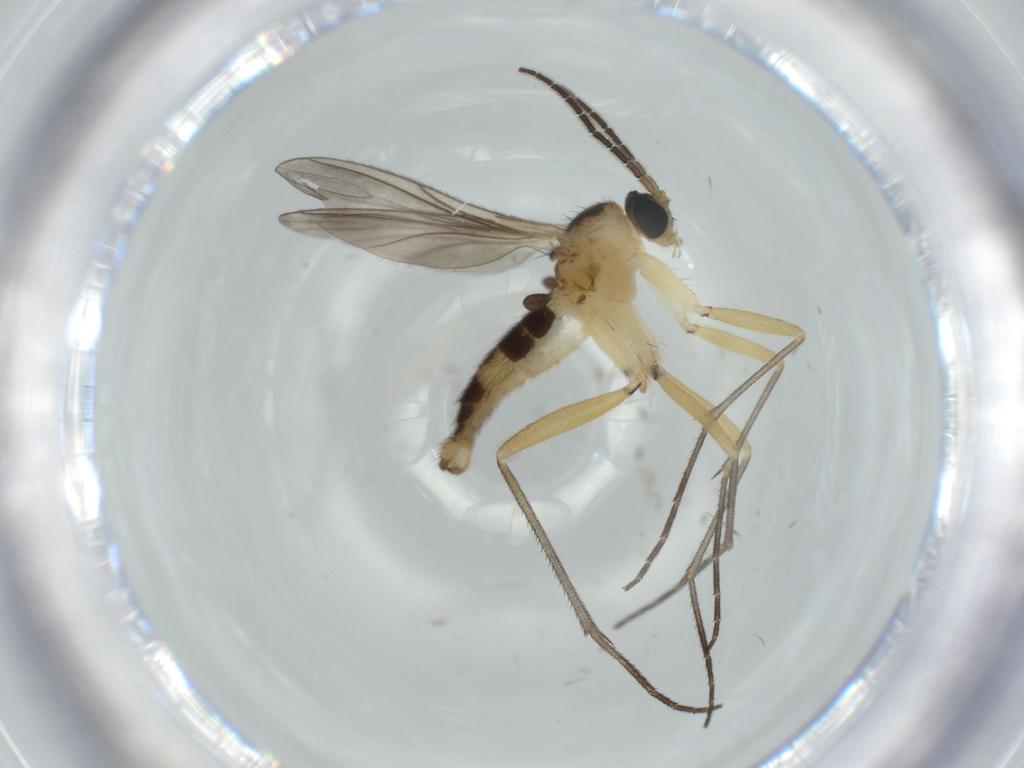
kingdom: Animalia
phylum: Arthropoda
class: Insecta
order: Diptera
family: Sciaridae
